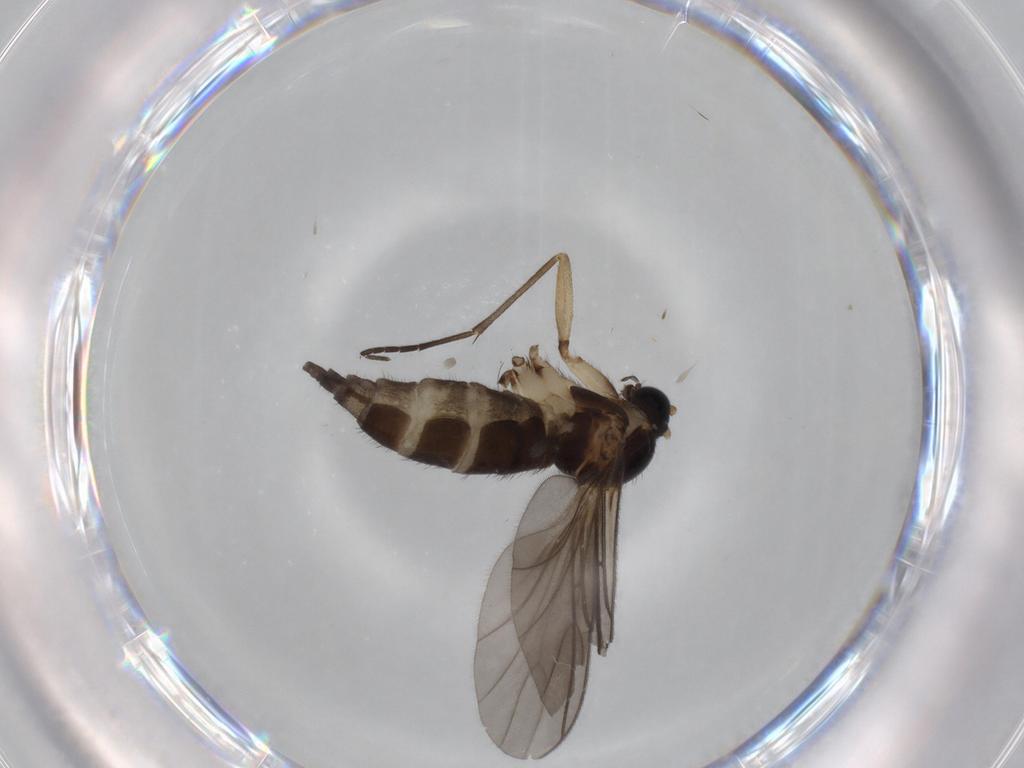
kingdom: Animalia
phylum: Arthropoda
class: Insecta
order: Diptera
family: Sciaridae
